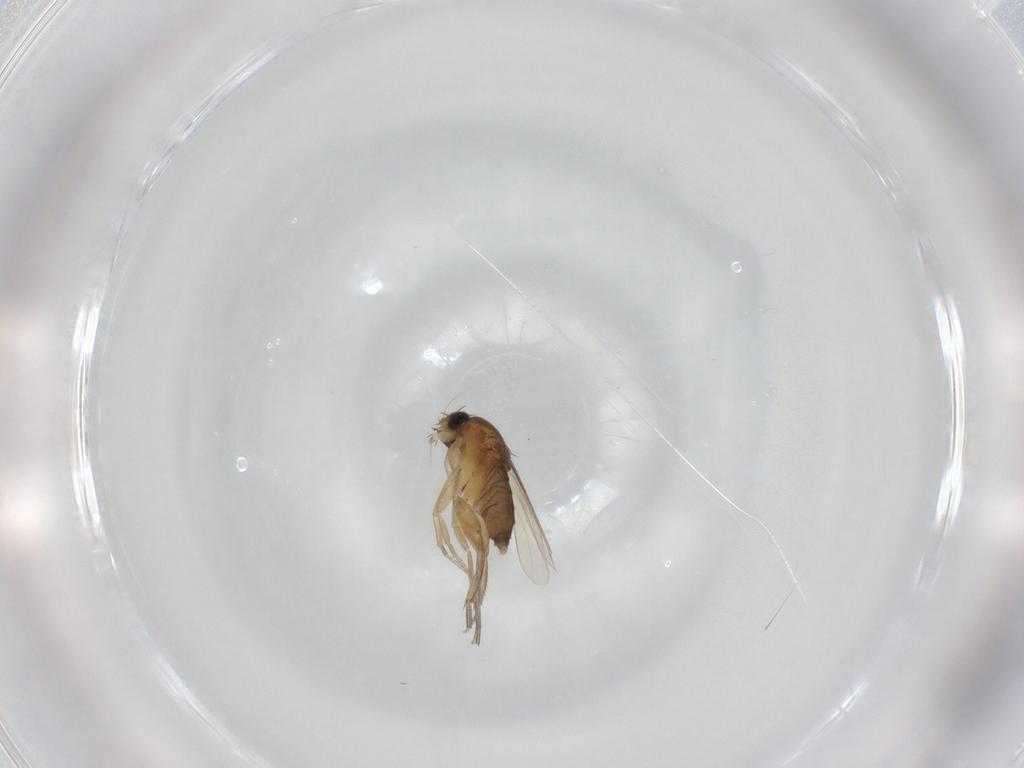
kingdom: Animalia
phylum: Arthropoda
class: Insecta
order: Diptera
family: Phoridae
